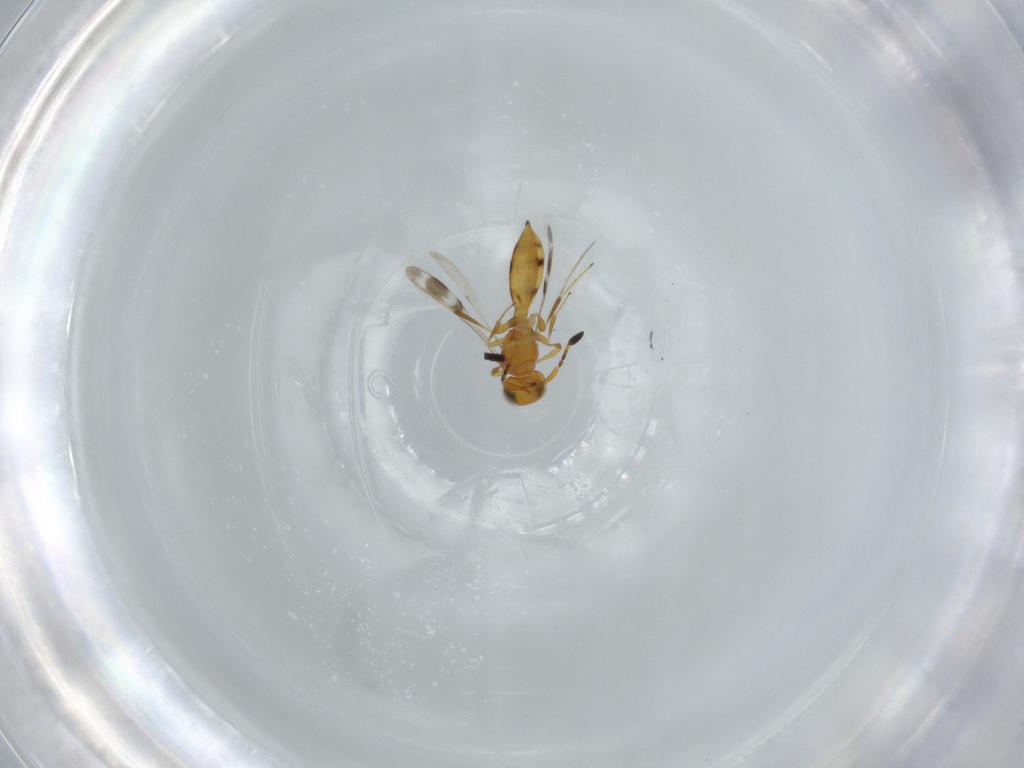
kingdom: Animalia
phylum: Arthropoda
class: Insecta
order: Hymenoptera
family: Scelionidae
